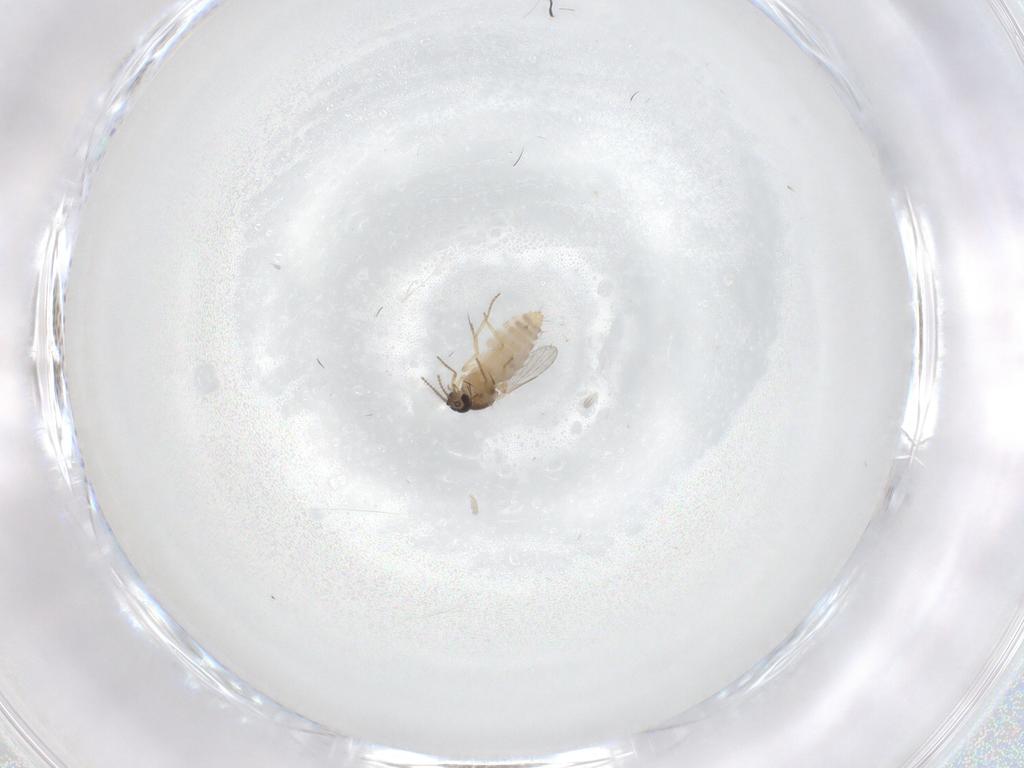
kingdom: Animalia
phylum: Arthropoda
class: Insecta
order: Diptera
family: Ceratopogonidae
